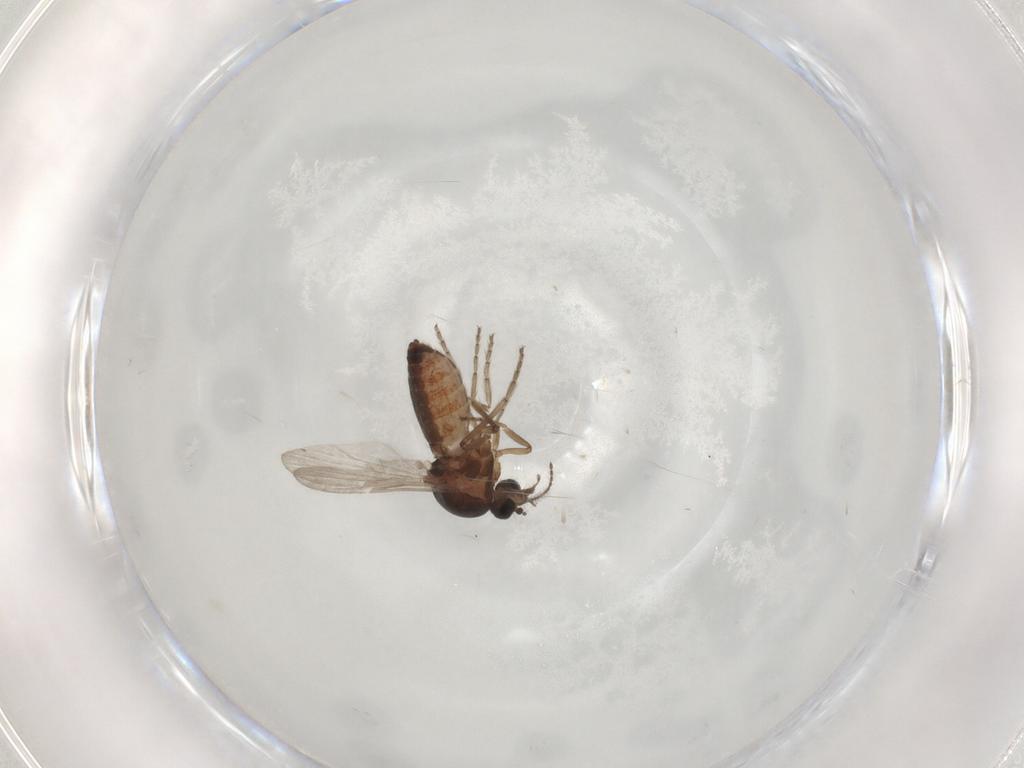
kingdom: Animalia
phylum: Arthropoda
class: Insecta
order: Diptera
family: Ceratopogonidae
